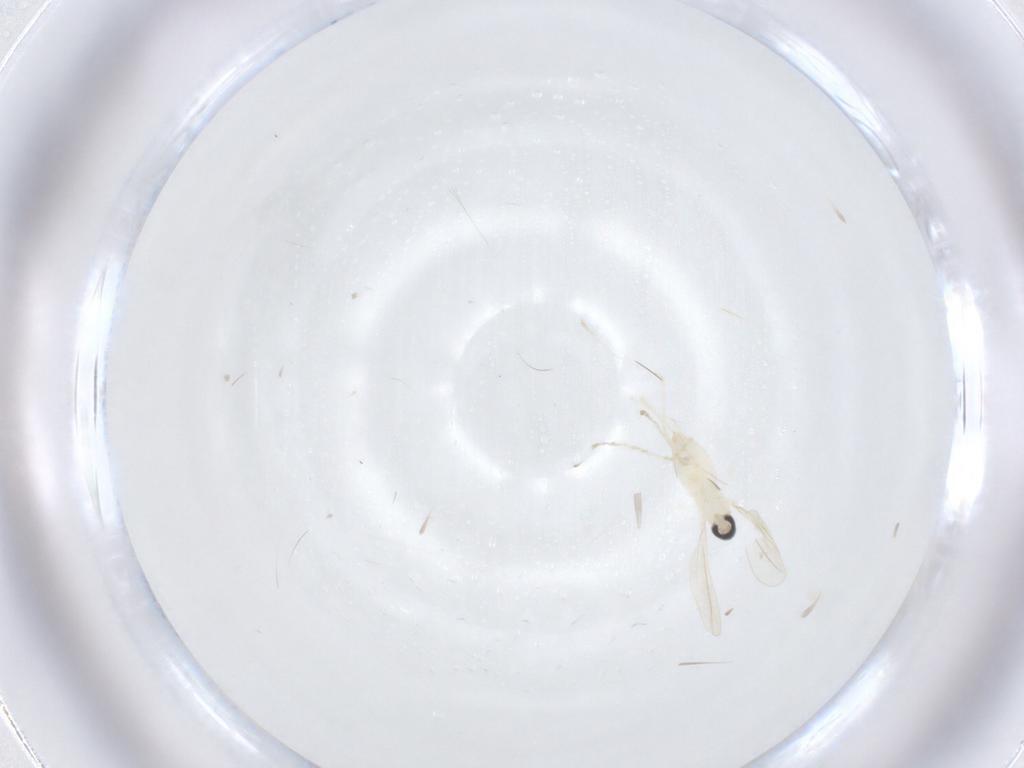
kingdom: Animalia
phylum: Arthropoda
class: Insecta
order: Diptera
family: Cecidomyiidae
